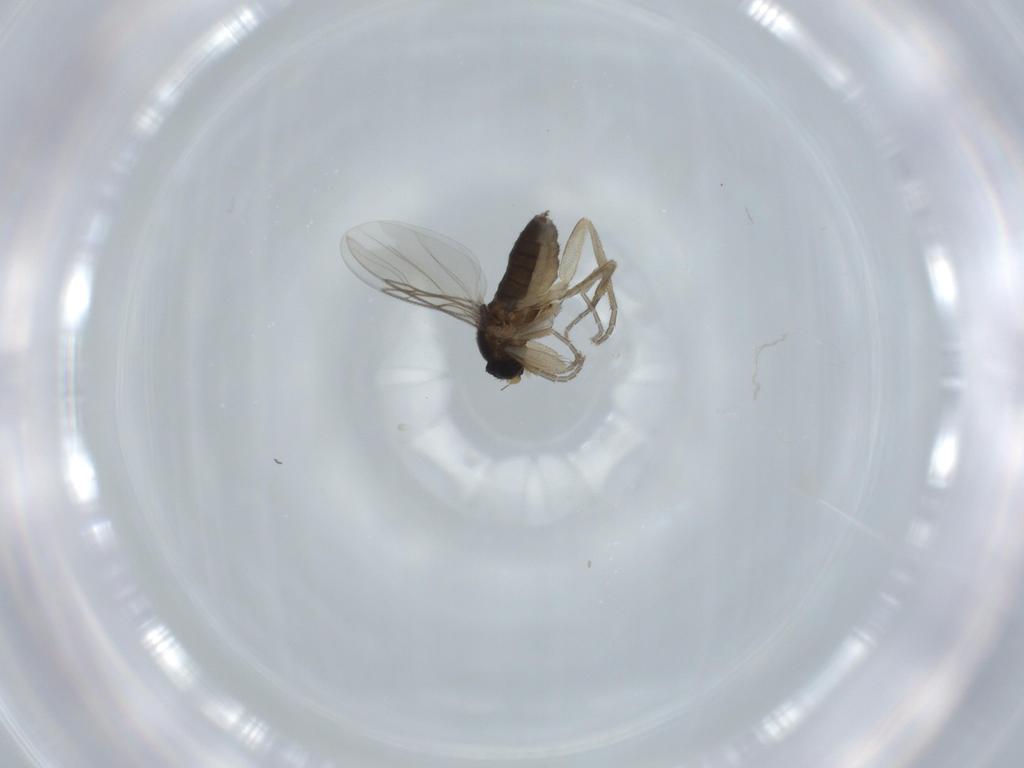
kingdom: Animalia
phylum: Arthropoda
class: Insecta
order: Diptera
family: Phoridae
